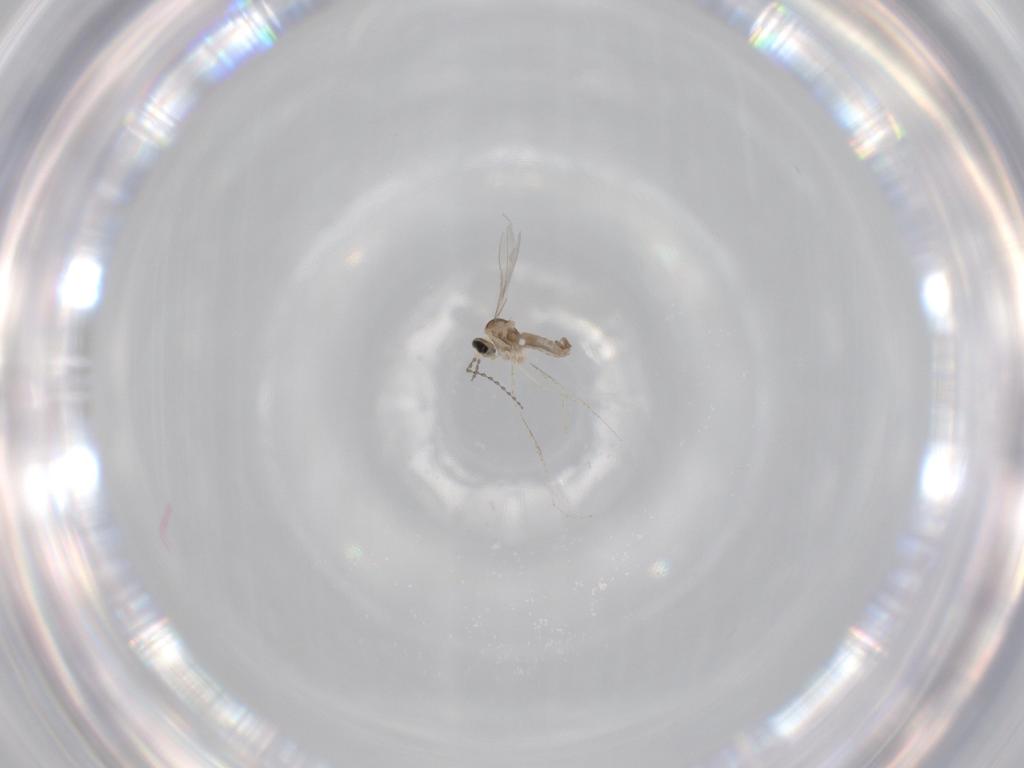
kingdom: Animalia
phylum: Arthropoda
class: Insecta
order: Diptera
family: Cecidomyiidae
